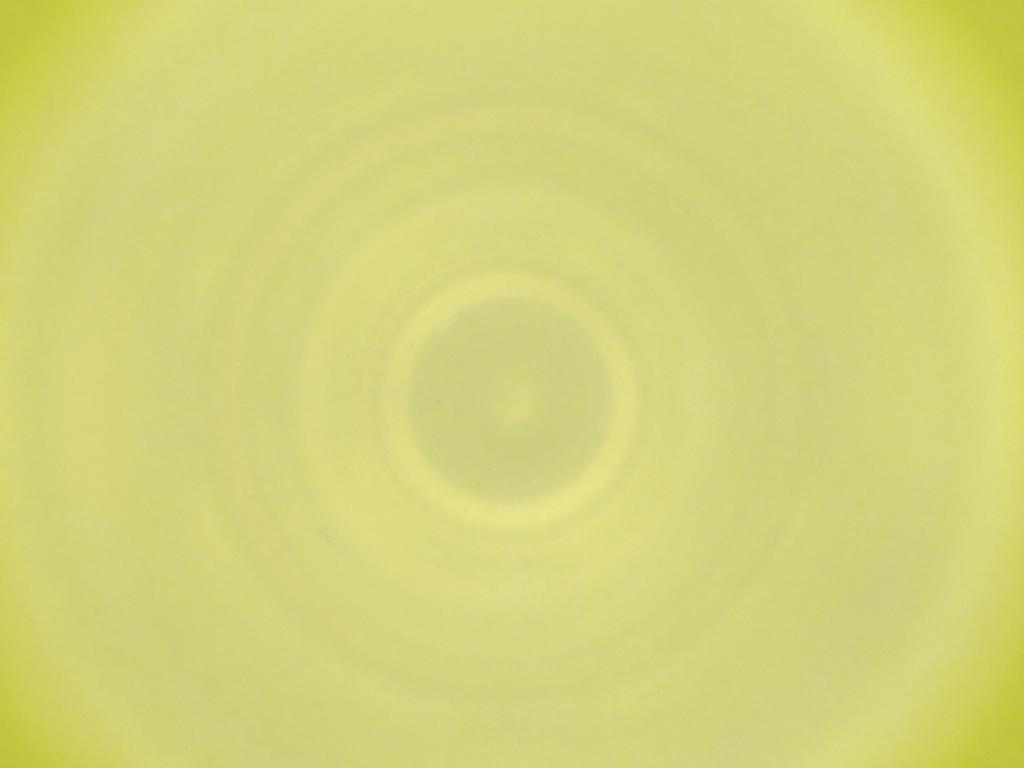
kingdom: Animalia
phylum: Arthropoda
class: Insecta
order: Diptera
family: Cecidomyiidae
